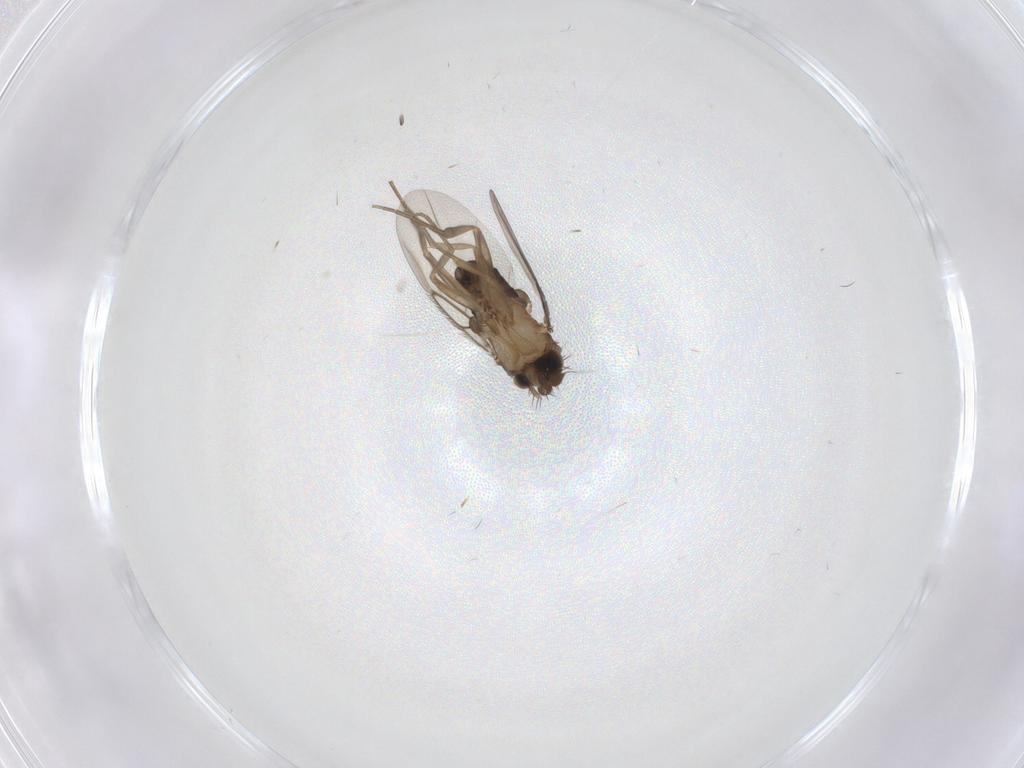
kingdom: Animalia
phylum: Arthropoda
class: Insecta
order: Diptera
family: Phoridae
